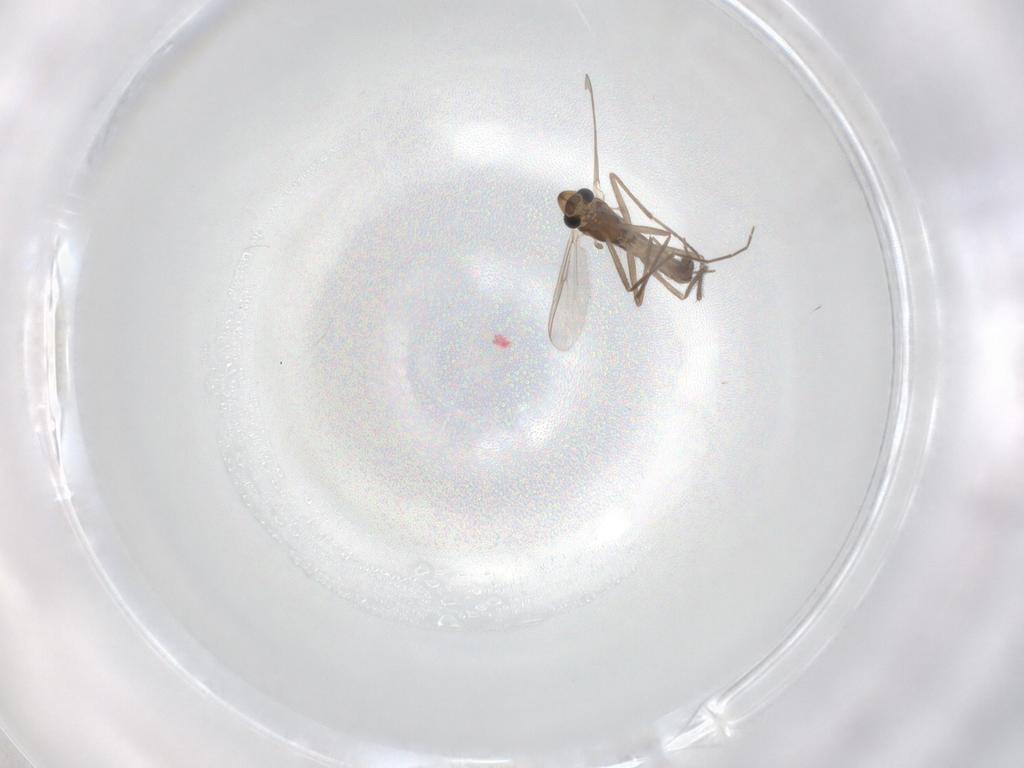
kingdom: Animalia
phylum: Arthropoda
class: Insecta
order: Diptera
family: Chironomidae
